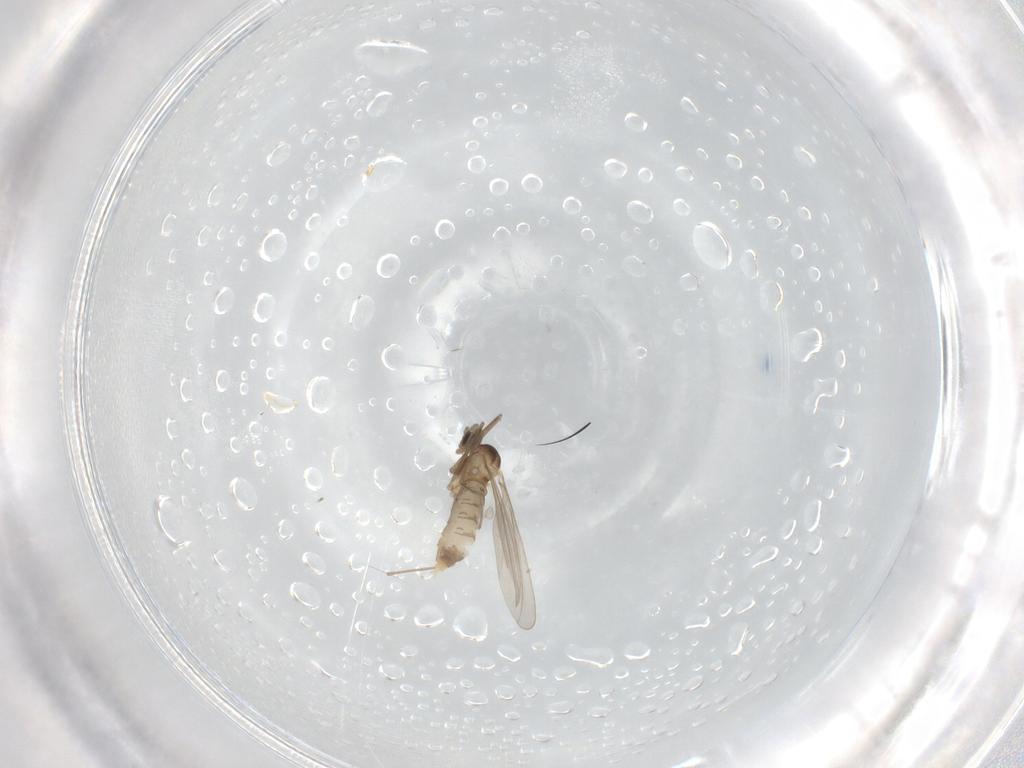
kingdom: Animalia
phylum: Arthropoda
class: Insecta
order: Diptera
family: Cecidomyiidae
